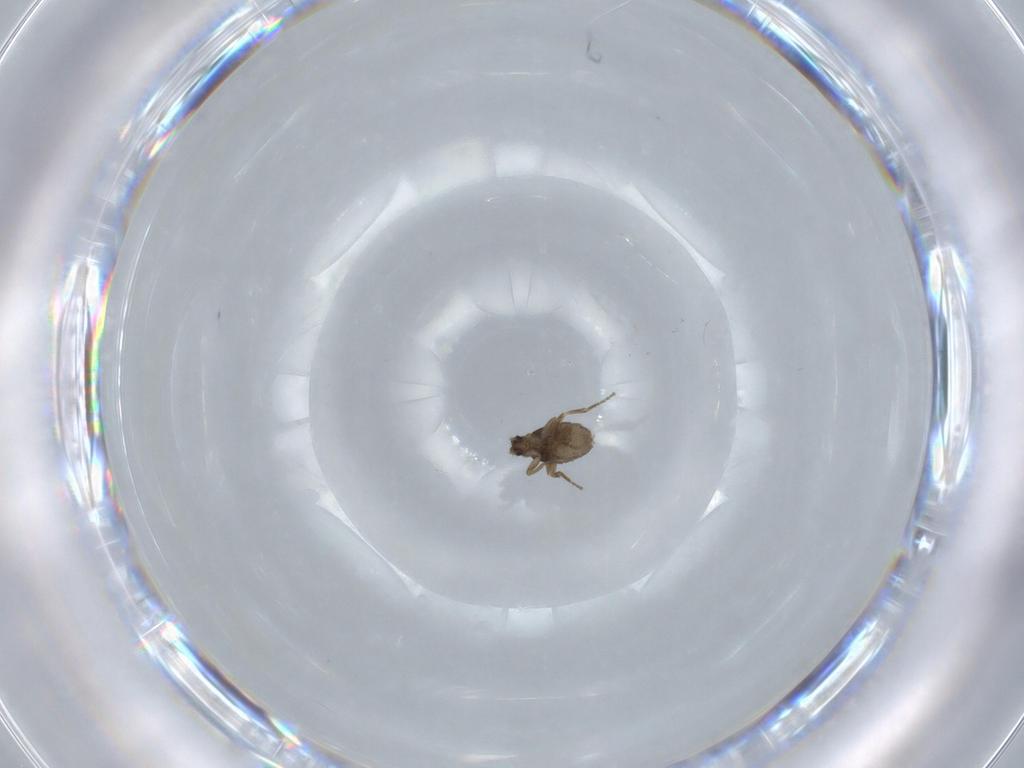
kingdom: Animalia
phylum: Arthropoda
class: Insecta
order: Diptera
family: Phoridae
